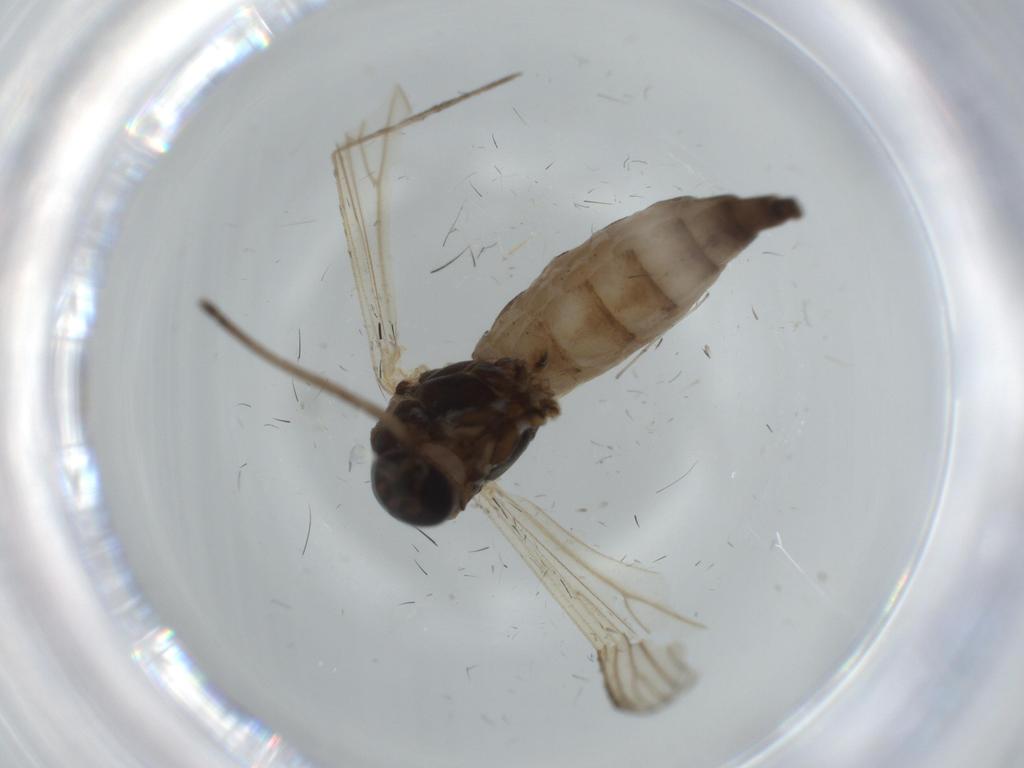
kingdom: Animalia
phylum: Arthropoda
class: Insecta
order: Diptera
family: Culicidae
